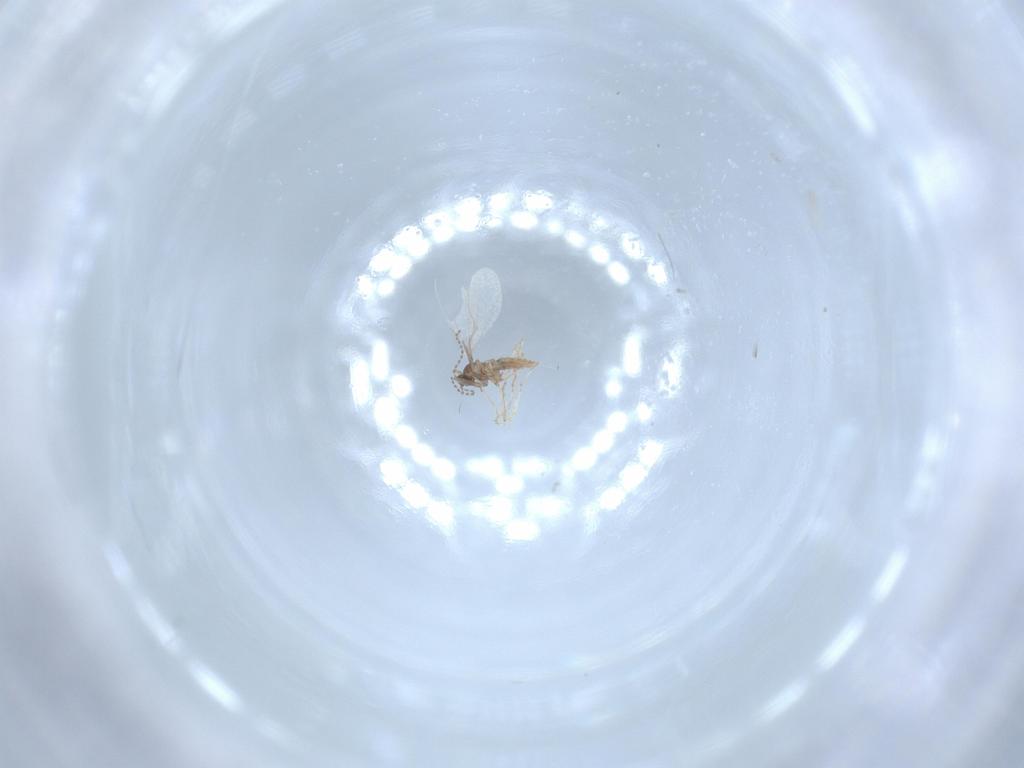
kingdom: Animalia
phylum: Arthropoda
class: Insecta
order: Diptera
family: Cecidomyiidae
